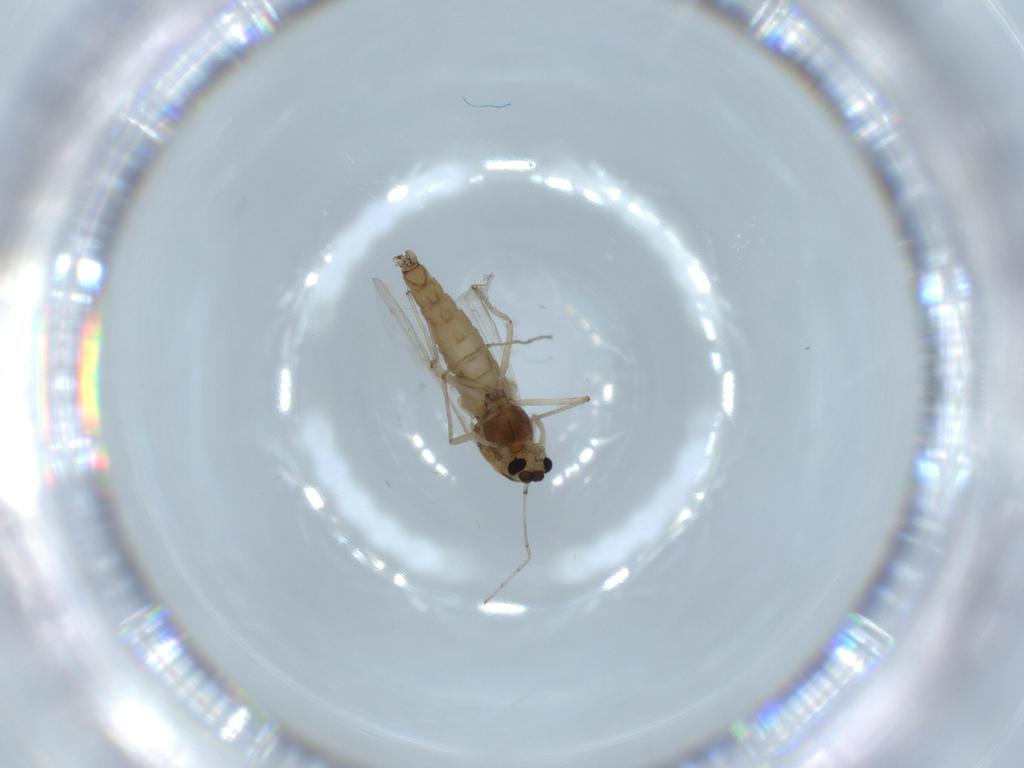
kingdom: Animalia
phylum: Arthropoda
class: Insecta
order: Diptera
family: Chironomidae
